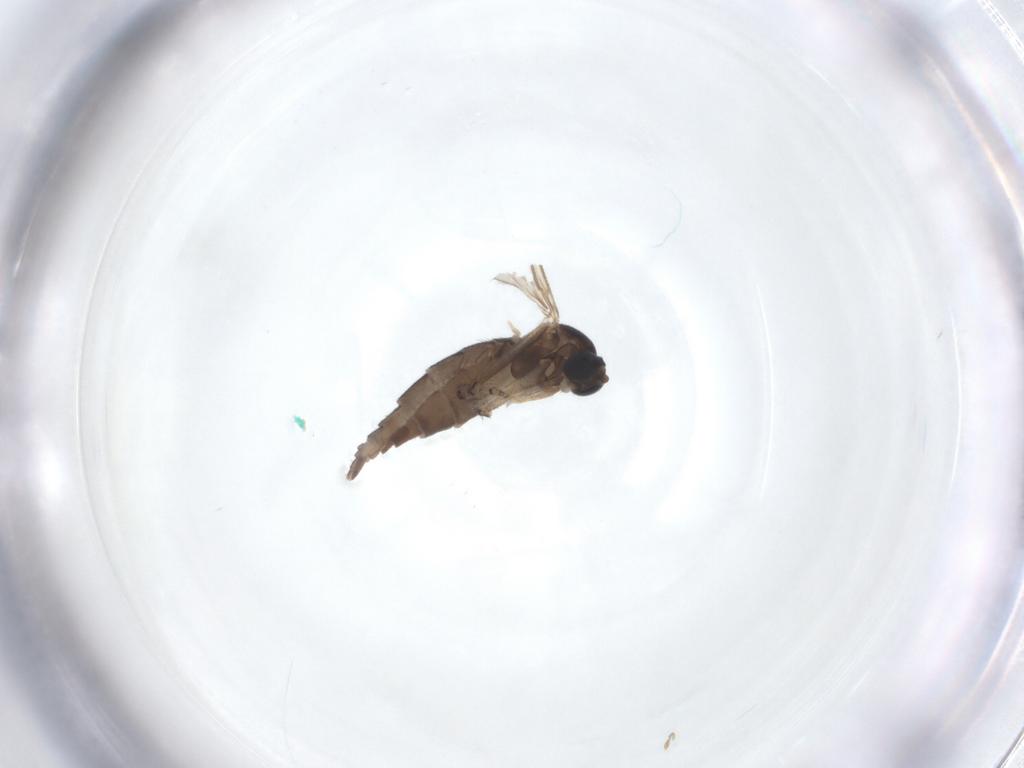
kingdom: Animalia
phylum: Arthropoda
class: Insecta
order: Diptera
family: Sciaridae
